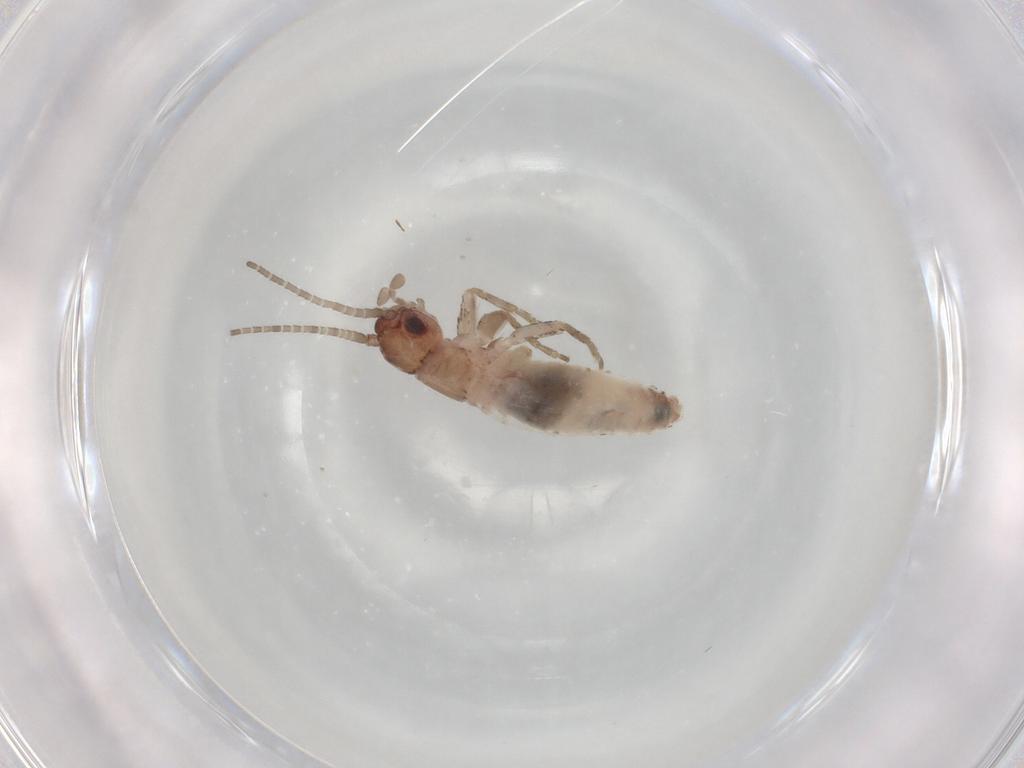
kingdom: Animalia
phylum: Arthropoda
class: Insecta
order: Orthoptera
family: Mogoplistidae
